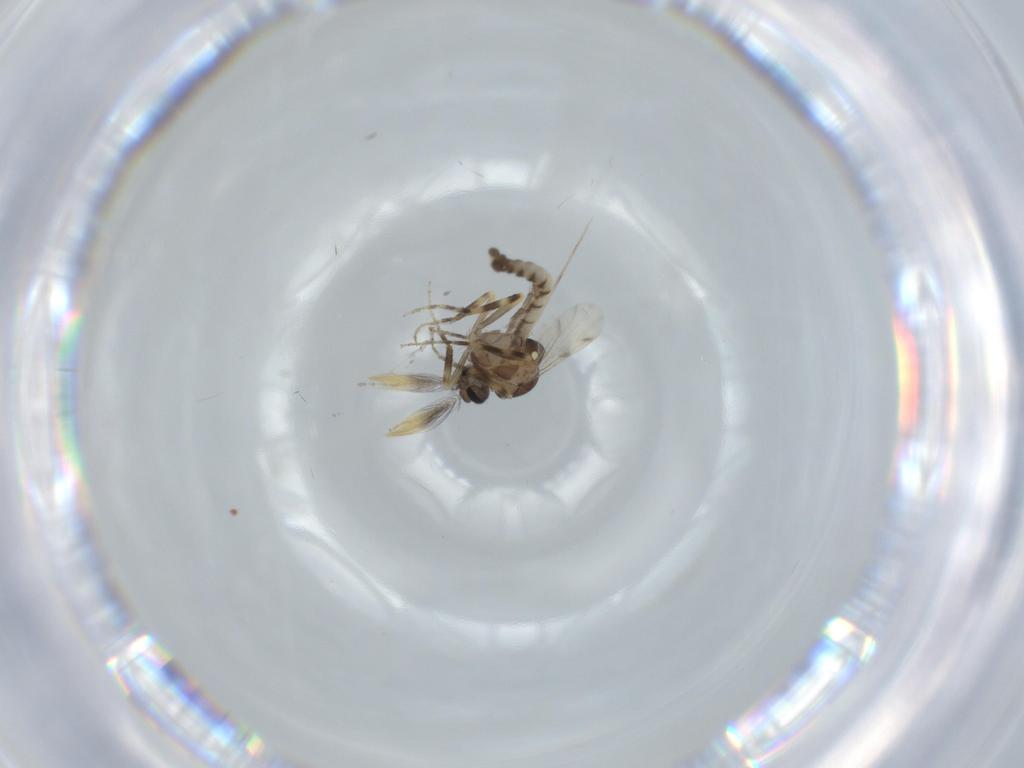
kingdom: Animalia
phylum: Arthropoda
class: Insecta
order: Diptera
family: Ceratopogonidae
